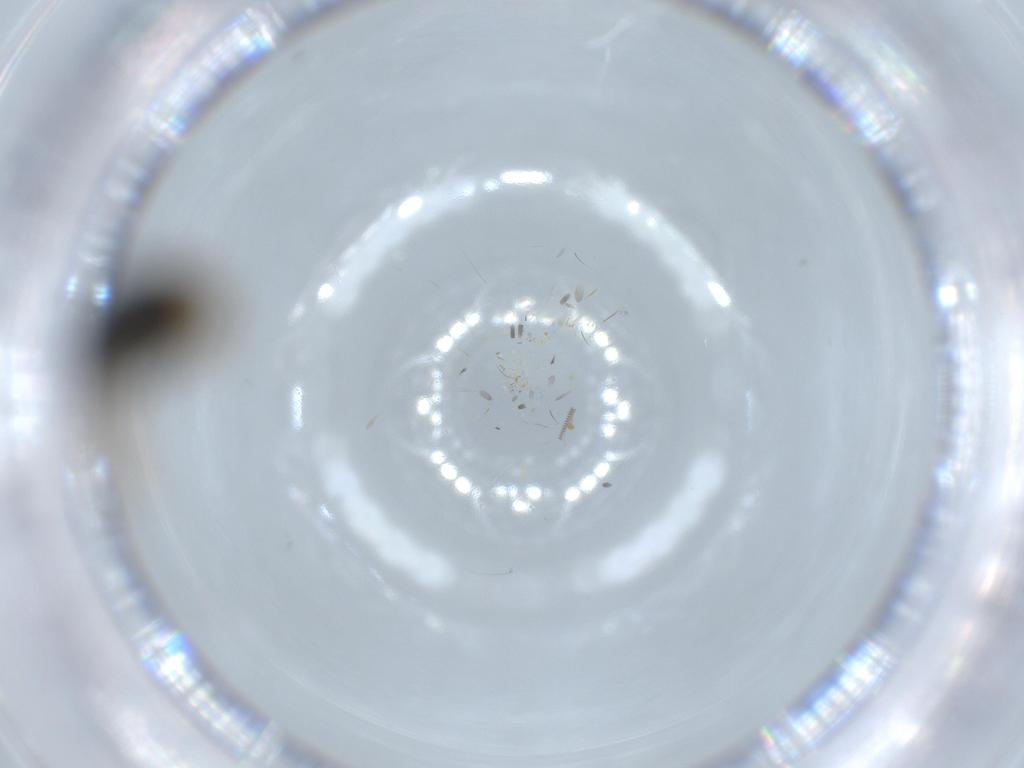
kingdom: Animalia
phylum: Arthropoda
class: Insecta
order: Coleoptera
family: Coccinellidae
